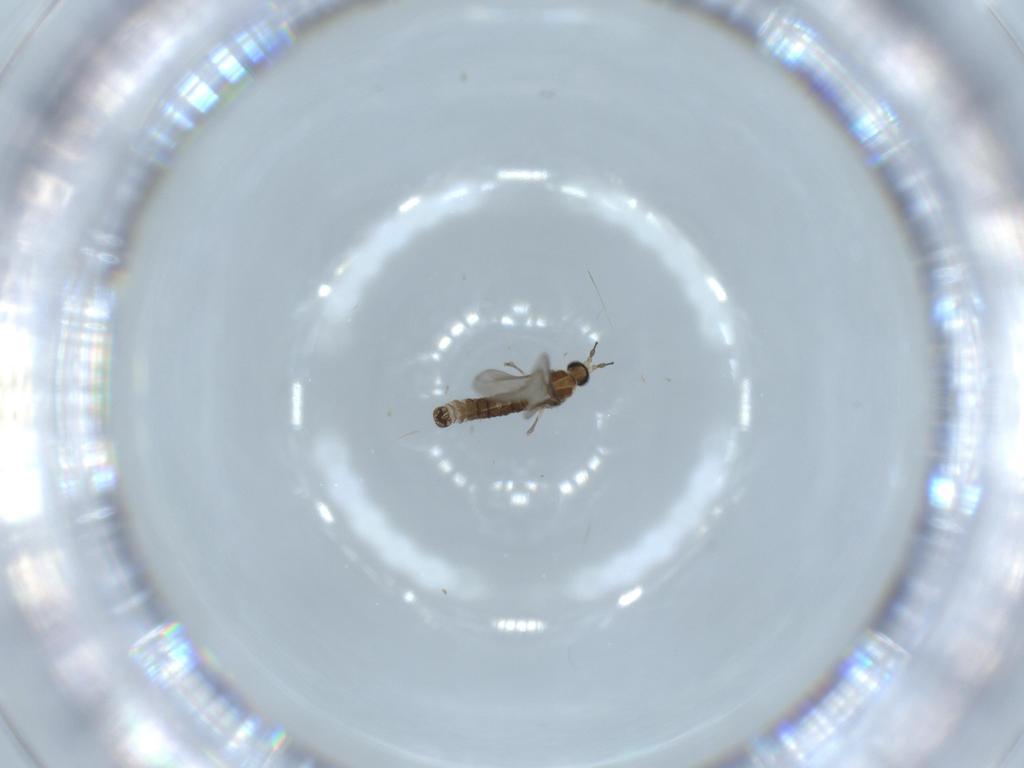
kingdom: Animalia
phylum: Arthropoda
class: Insecta
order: Diptera
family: Cecidomyiidae
